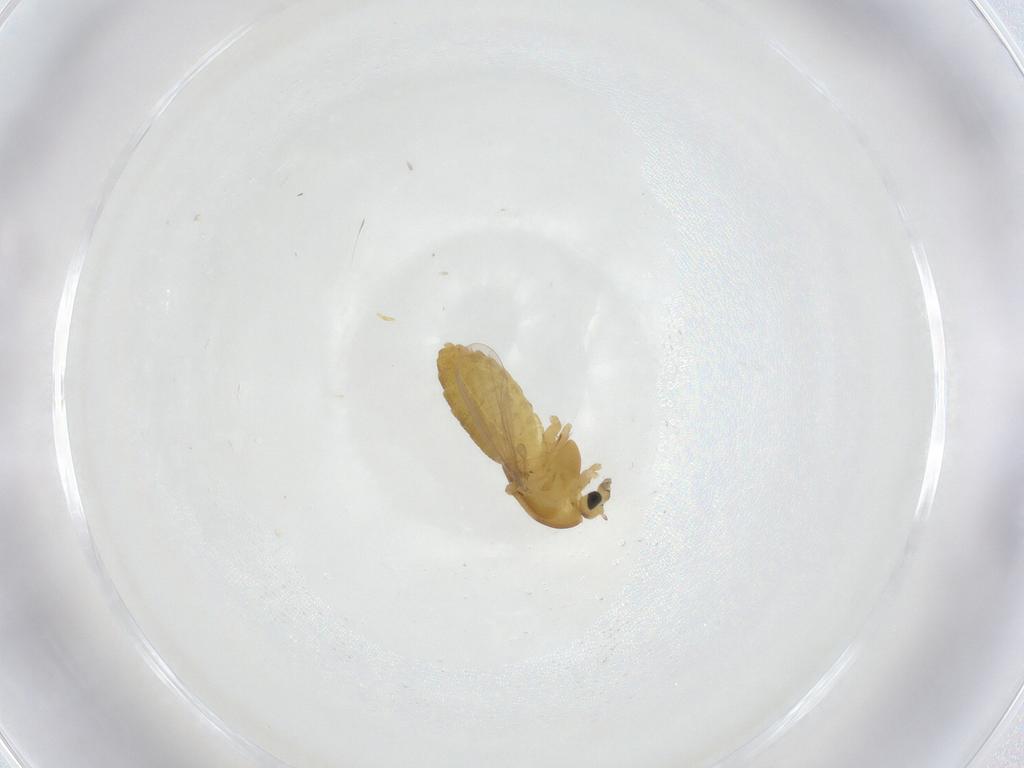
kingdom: Animalia
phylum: Arthropoda
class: Insecta
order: Diptera
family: Chironomidae
